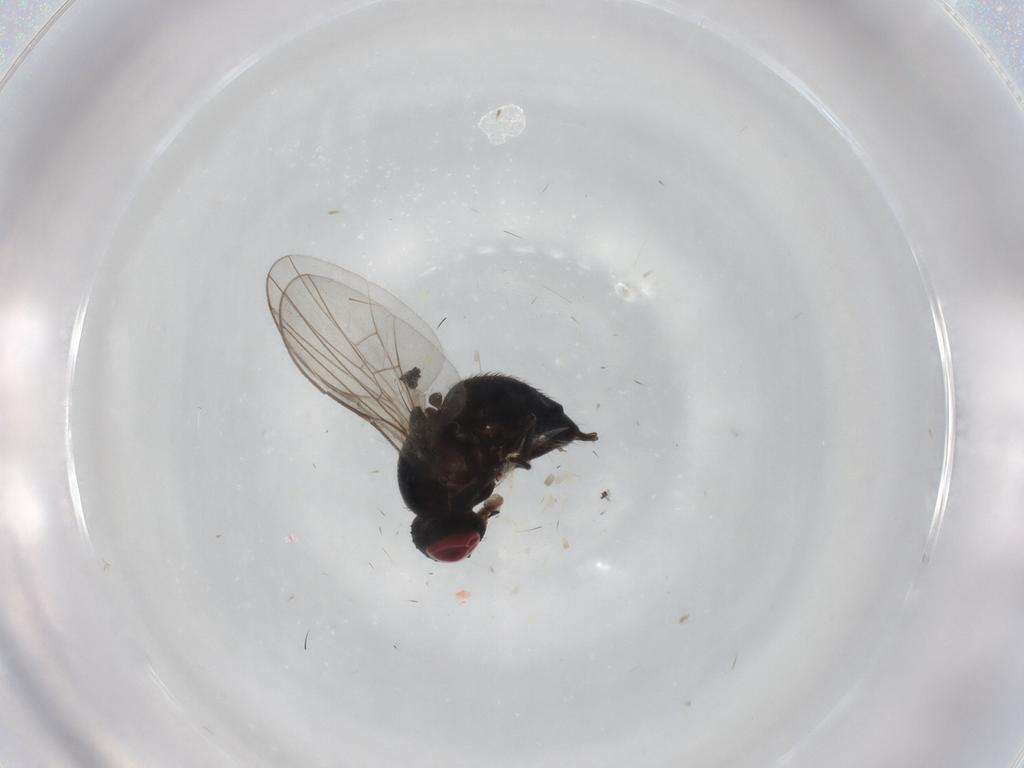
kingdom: Animalia
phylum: Arthropoda
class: Insecta
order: Diptera
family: Agromyzidae
